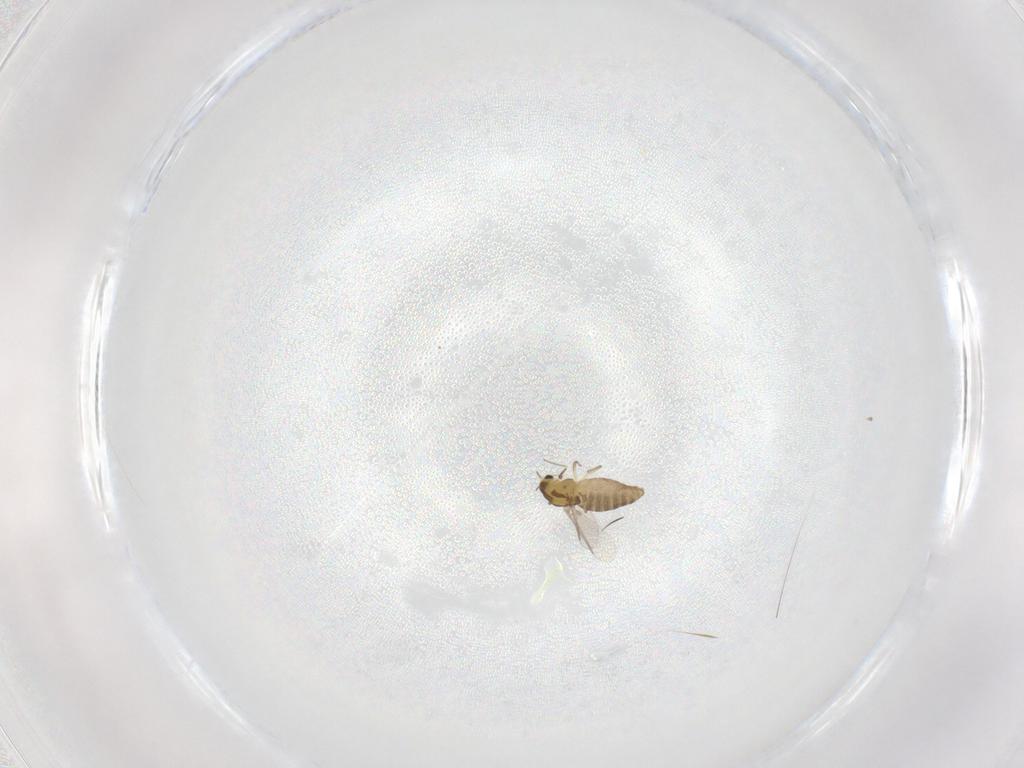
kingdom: Animalia
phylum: Arthropoda
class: Insecta
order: Diptera
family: Chironomidae
